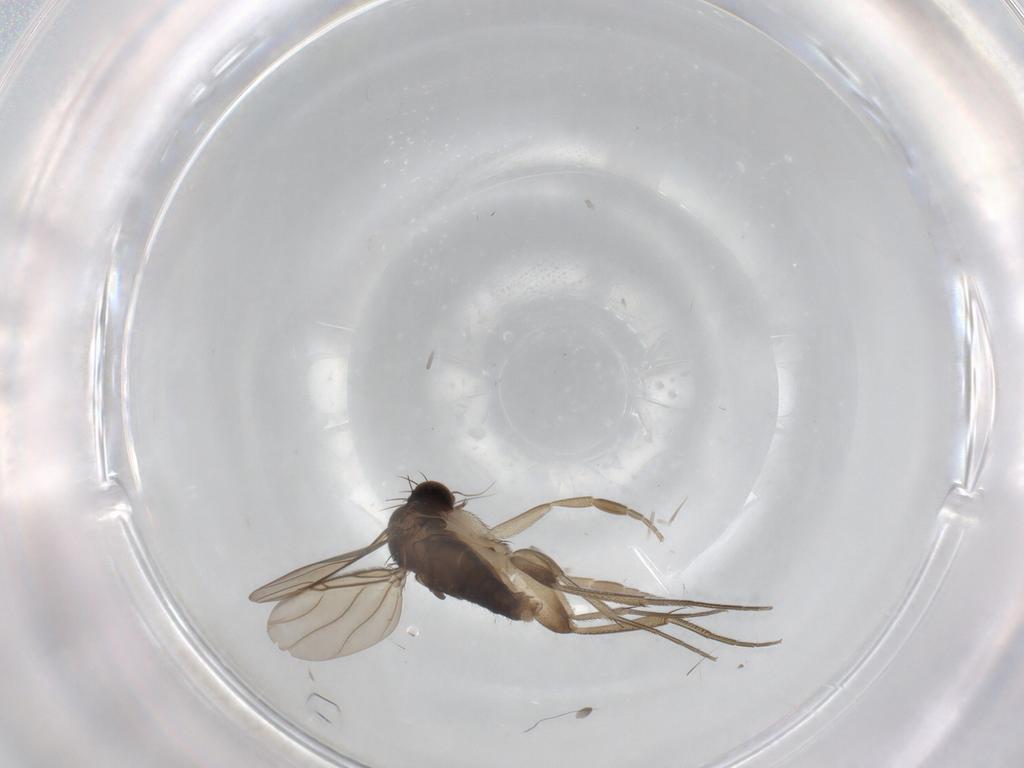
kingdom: Animalia
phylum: Arthropoda
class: Insecta
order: Diptera
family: Phoridae
